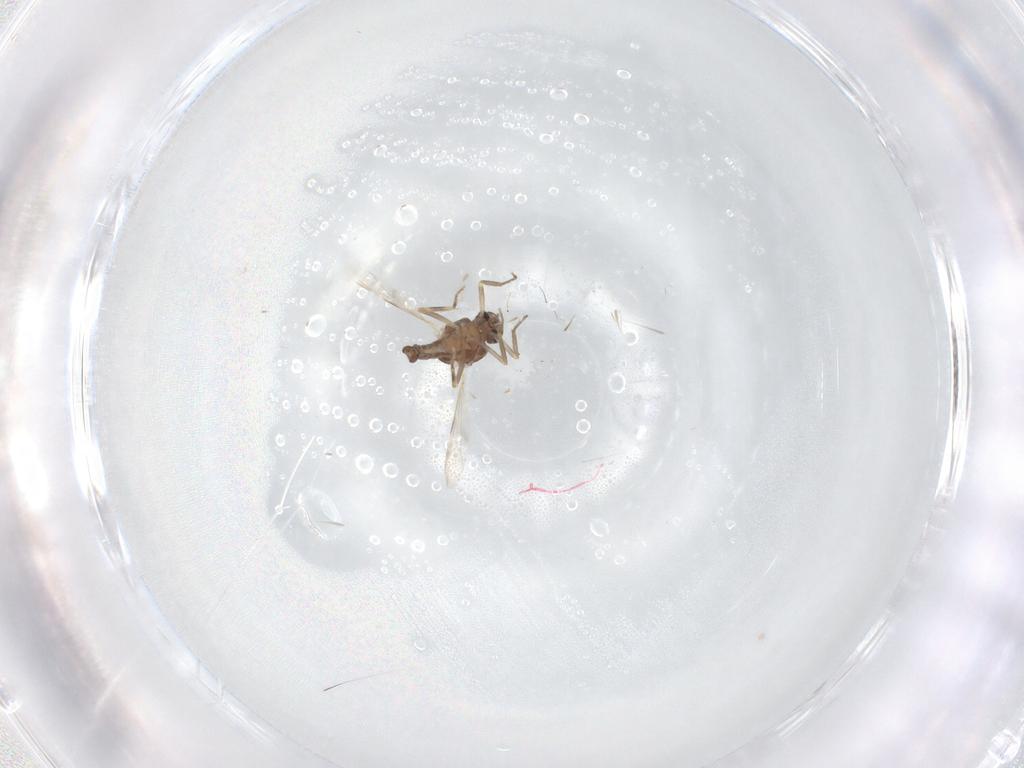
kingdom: Animalia
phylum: Arthropoda
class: Insecta
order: Diptera
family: Ceratopogonidae
